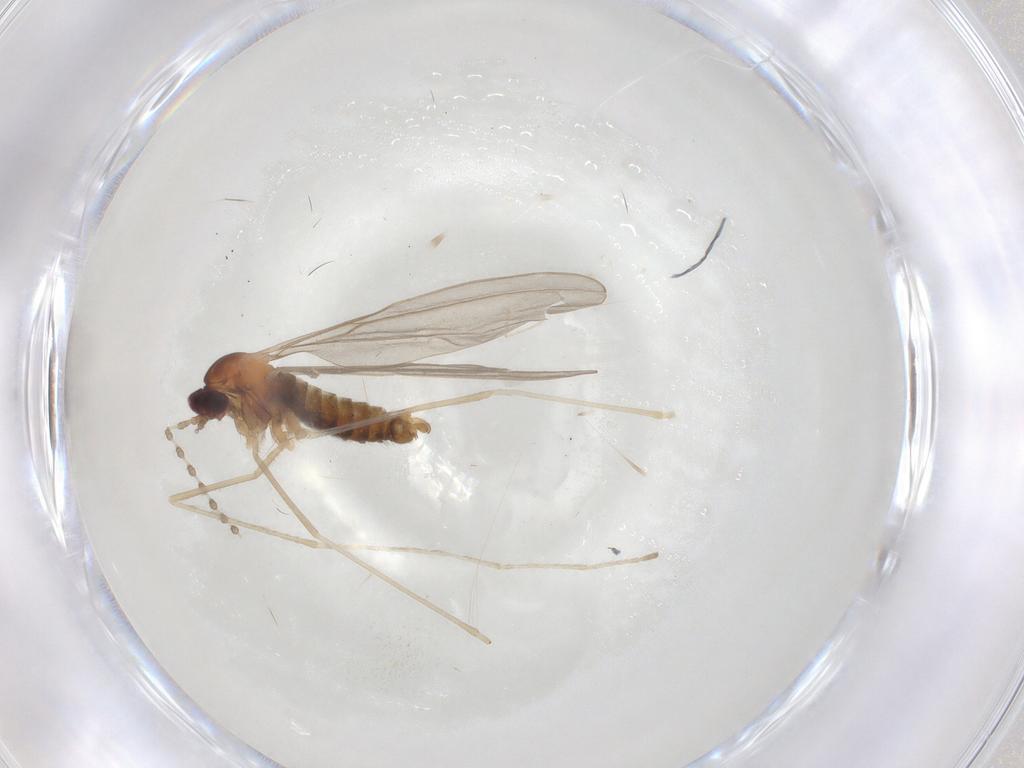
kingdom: Animalia
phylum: Arthropoda
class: Insecta
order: Diptera
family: Cecidomyiidae
